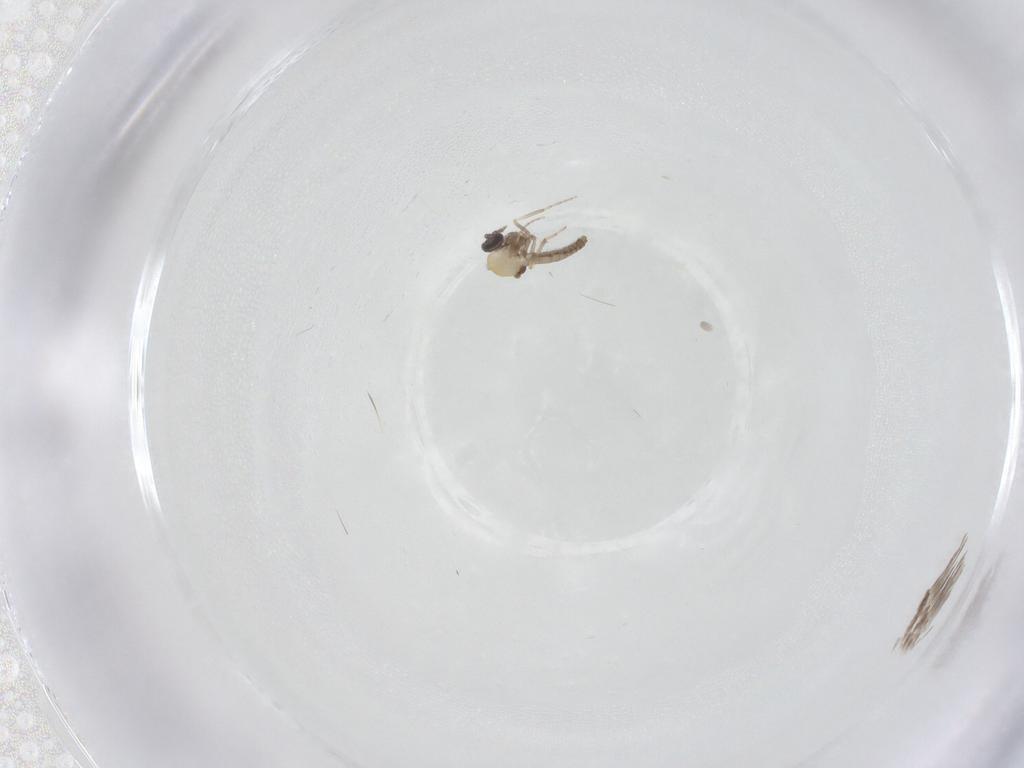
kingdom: Animalia
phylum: Arthropoda
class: Insecta
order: Diptera
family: Ceratopogonidae
